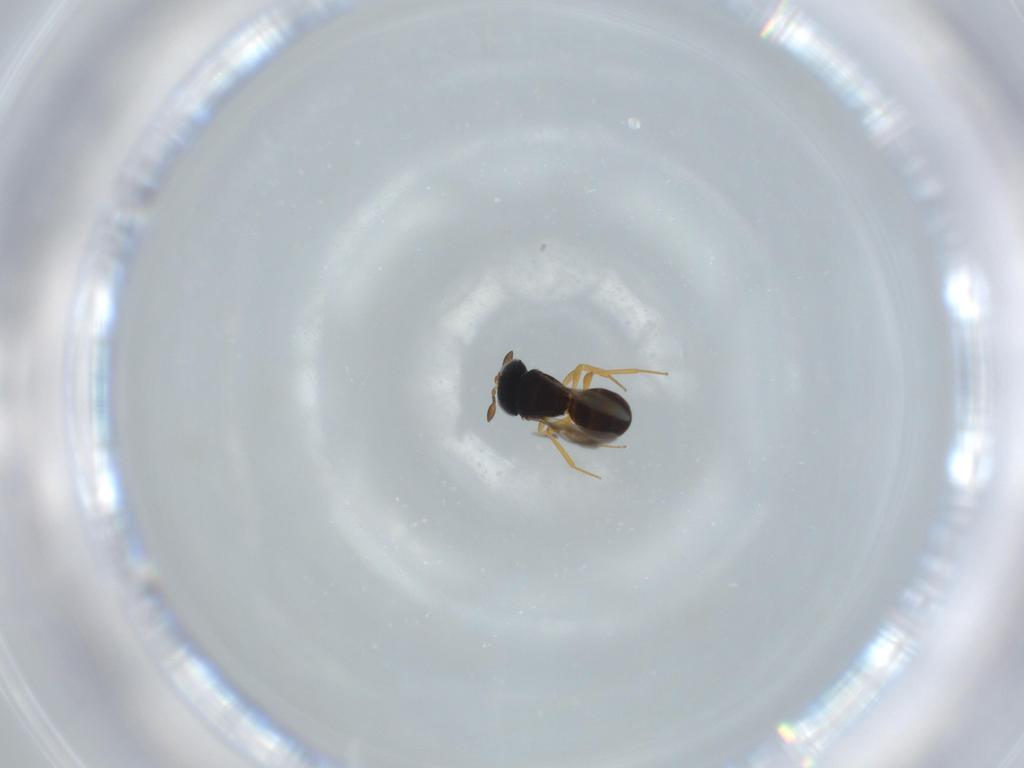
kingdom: Animalia
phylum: Arthropoda
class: Insecta
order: Hymenoptera
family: Scelionidae
